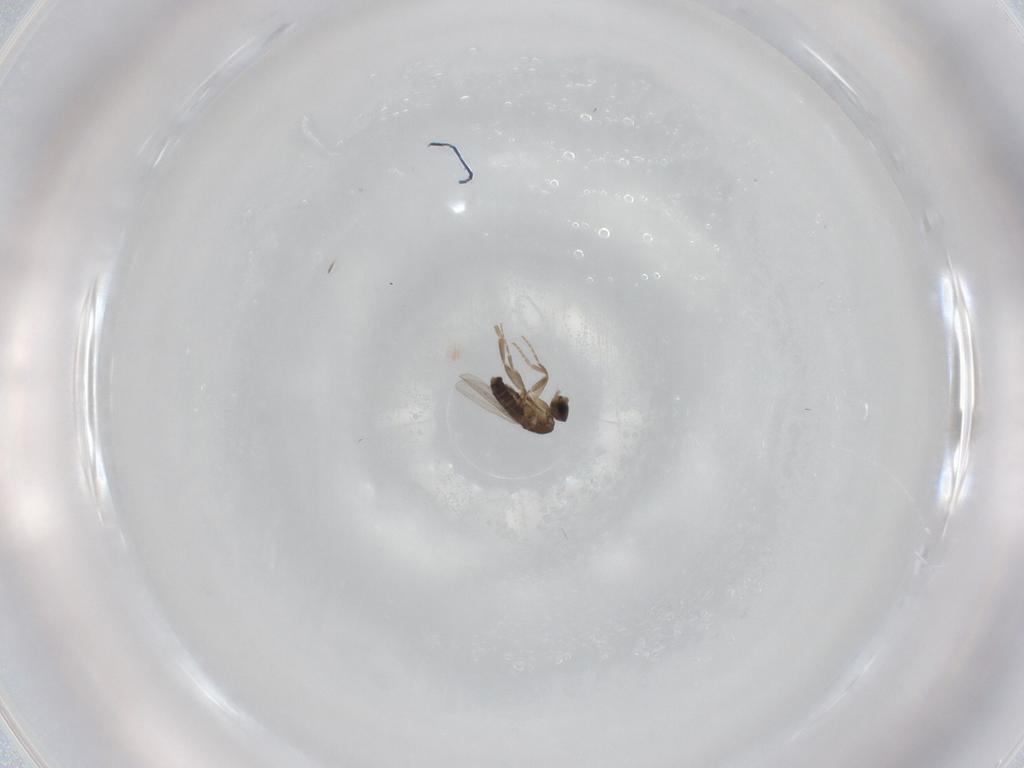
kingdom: Animalia
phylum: Arthropoda
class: Insecta
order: Diptera
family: Phoridae
